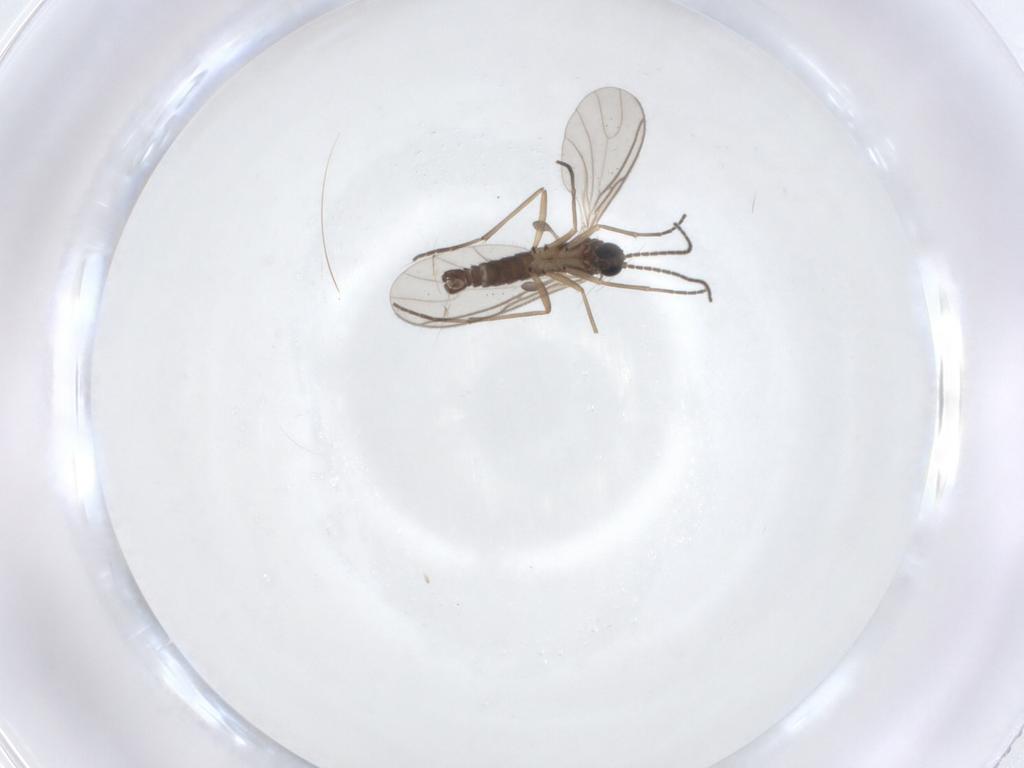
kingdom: Animalia
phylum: Arthropoda
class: Insecta
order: Diptera
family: Sciaridae
